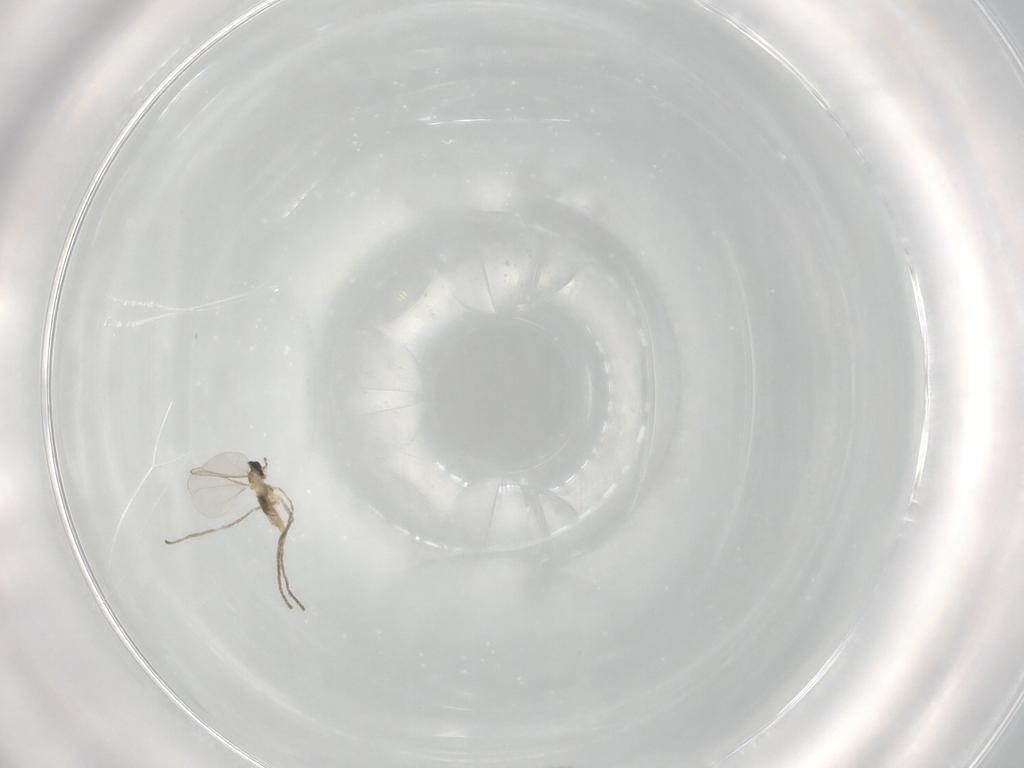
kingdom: Animalia
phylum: Arthropoda
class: Insecta
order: Diptera
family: Cecidomyiidae
